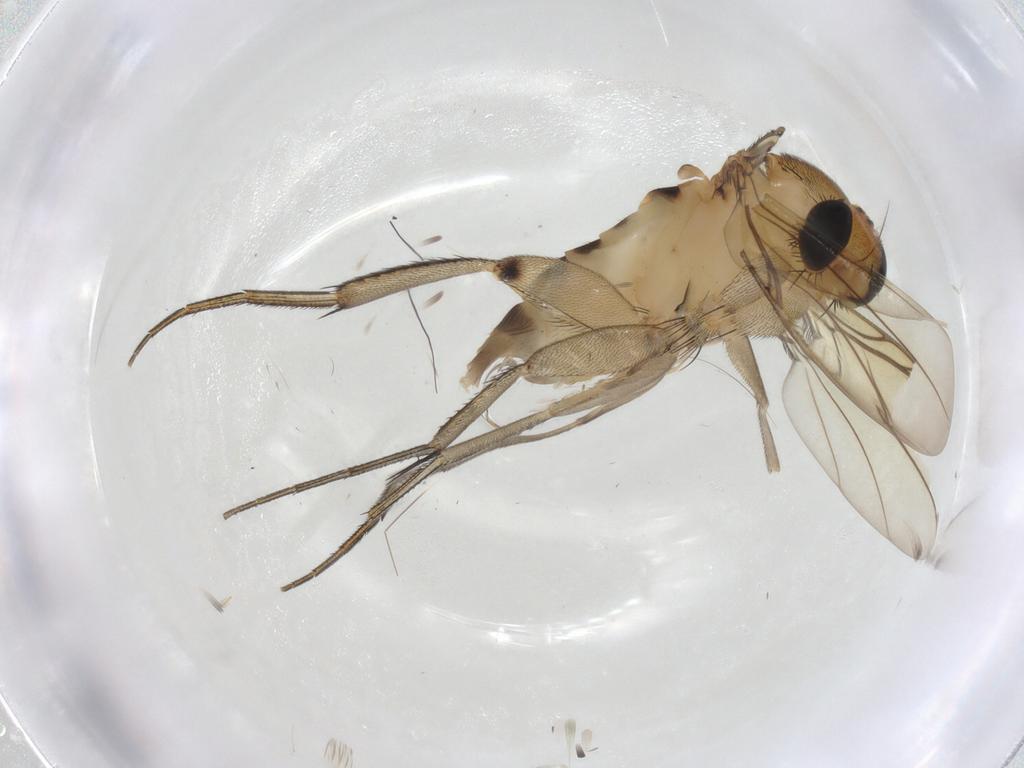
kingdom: Animalia
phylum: Arthropoda
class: Insecta
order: Diptera
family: Phoridae
